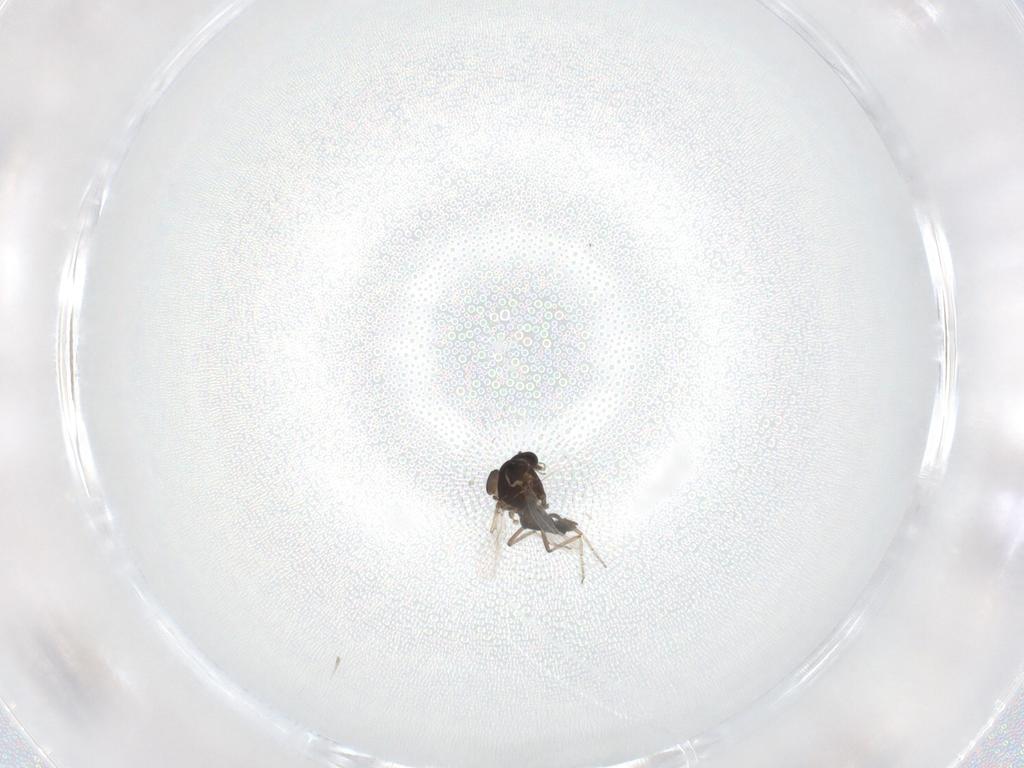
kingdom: Animalia
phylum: Arthropoda
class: Insecta
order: Diptera
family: Ceratopogonidae
